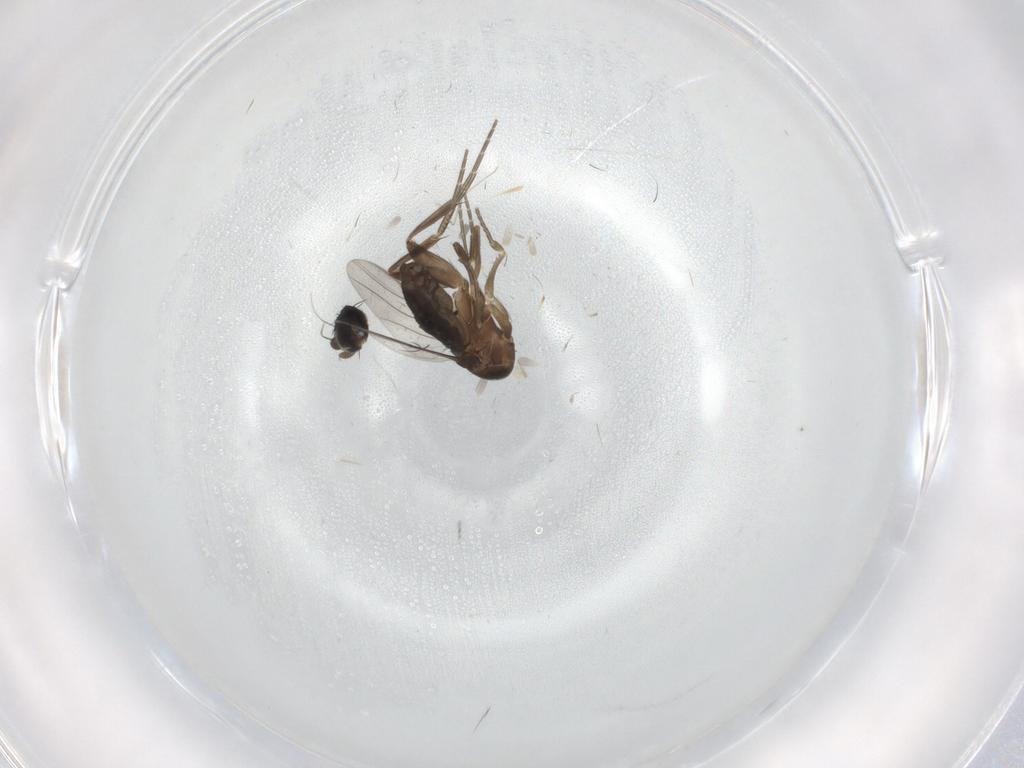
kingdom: Animalia
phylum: Arthropoda
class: Insecta
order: Diptera
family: Phoridae
